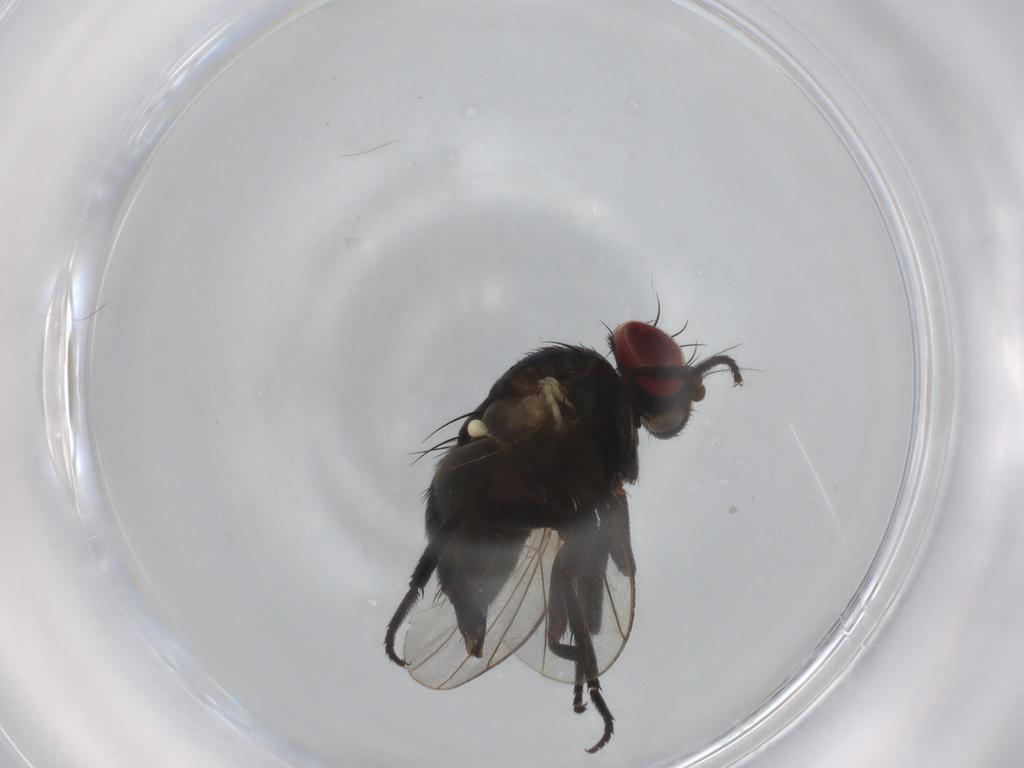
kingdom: Animalia
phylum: Arthropoda
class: Insecta
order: Diptera
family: Agromyzidae
